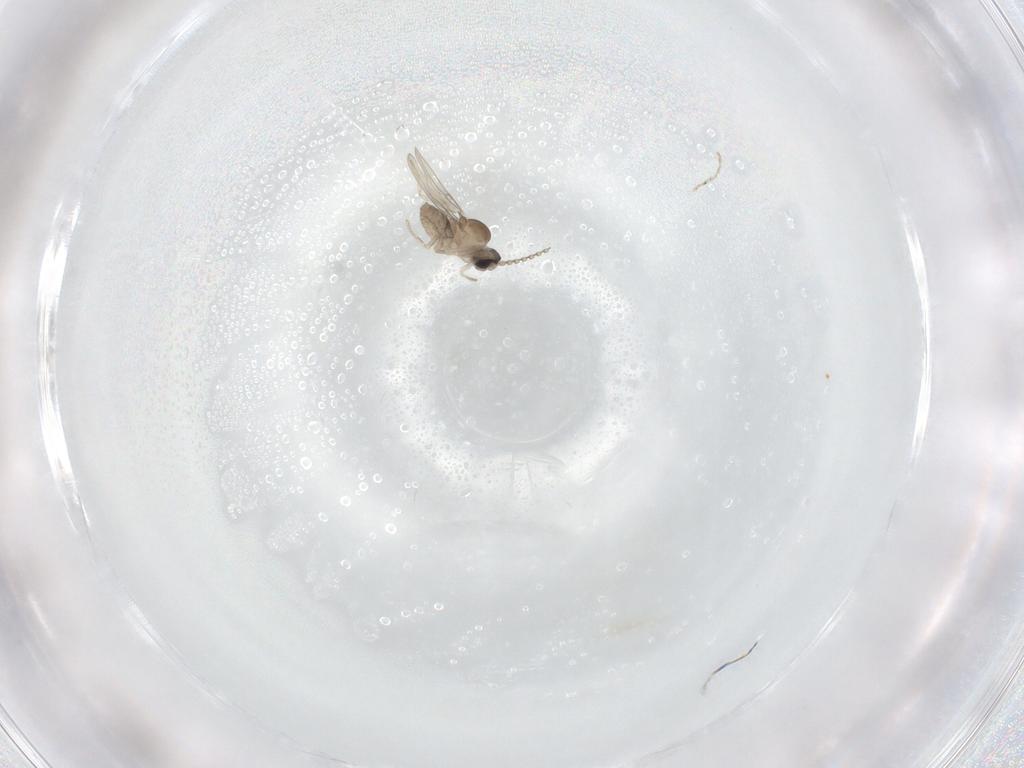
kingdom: Animalia
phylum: Arthropoda
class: Insecta
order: Diptera
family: Cecidomyiidae
